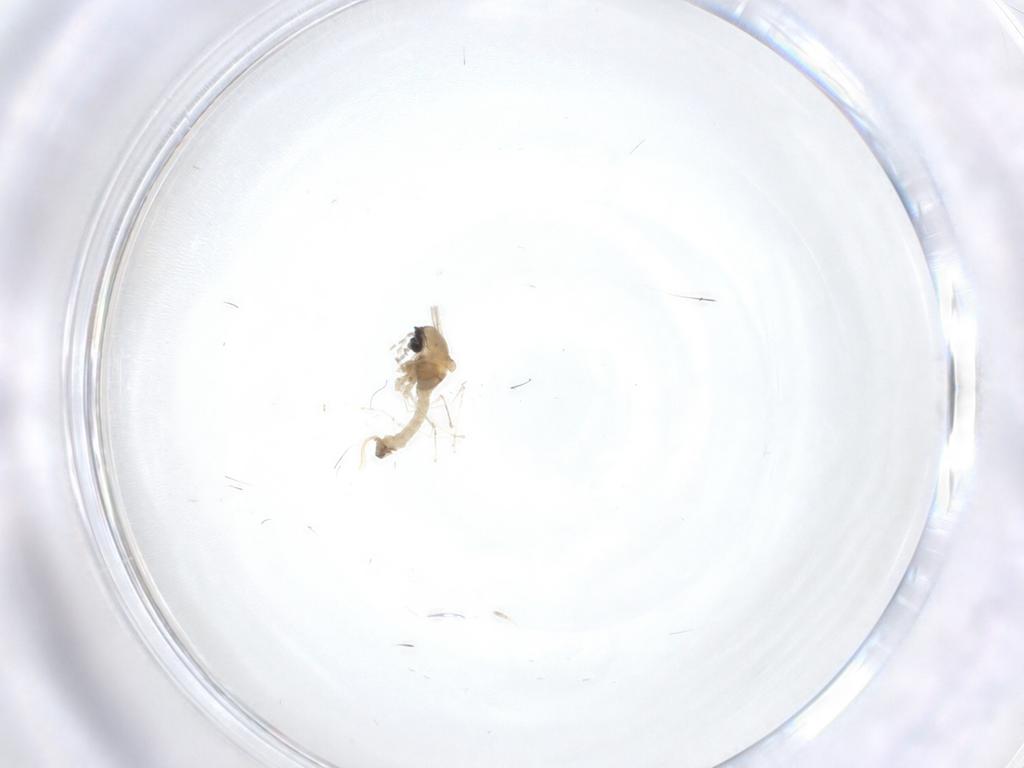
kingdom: Animalia
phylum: Arthropoda
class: Insecta
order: Diptera
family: Cecidomyiidae
